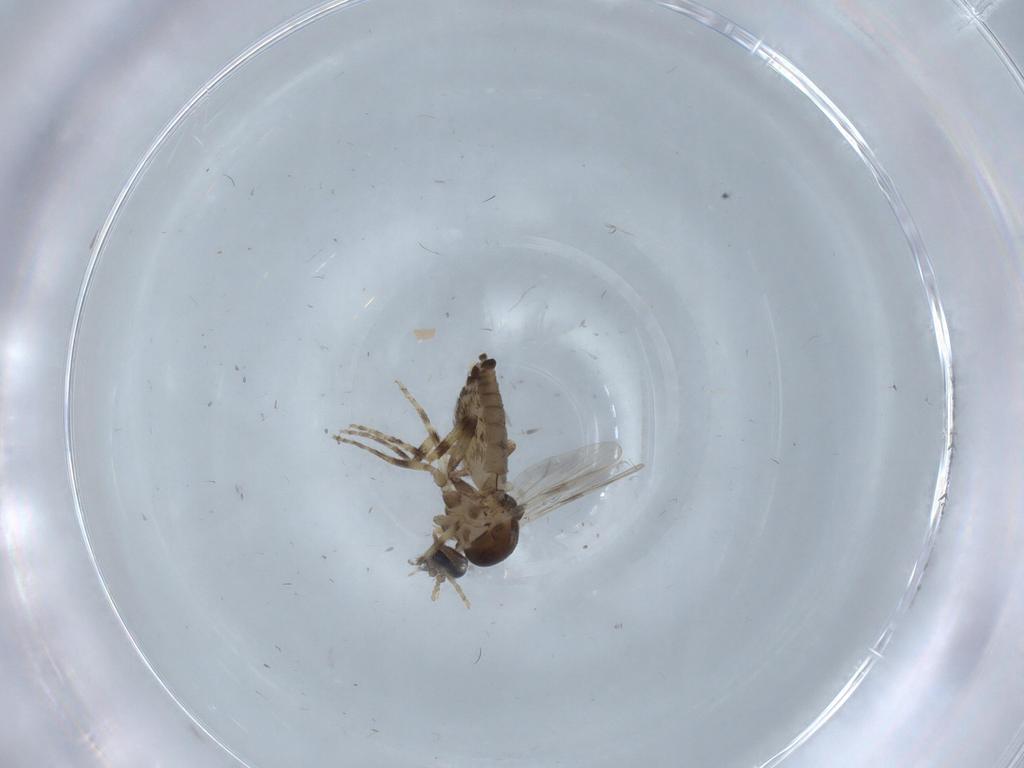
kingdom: Animalia
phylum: Arthropoda
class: Insecta
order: Diptera
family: Ceratopogonidae
